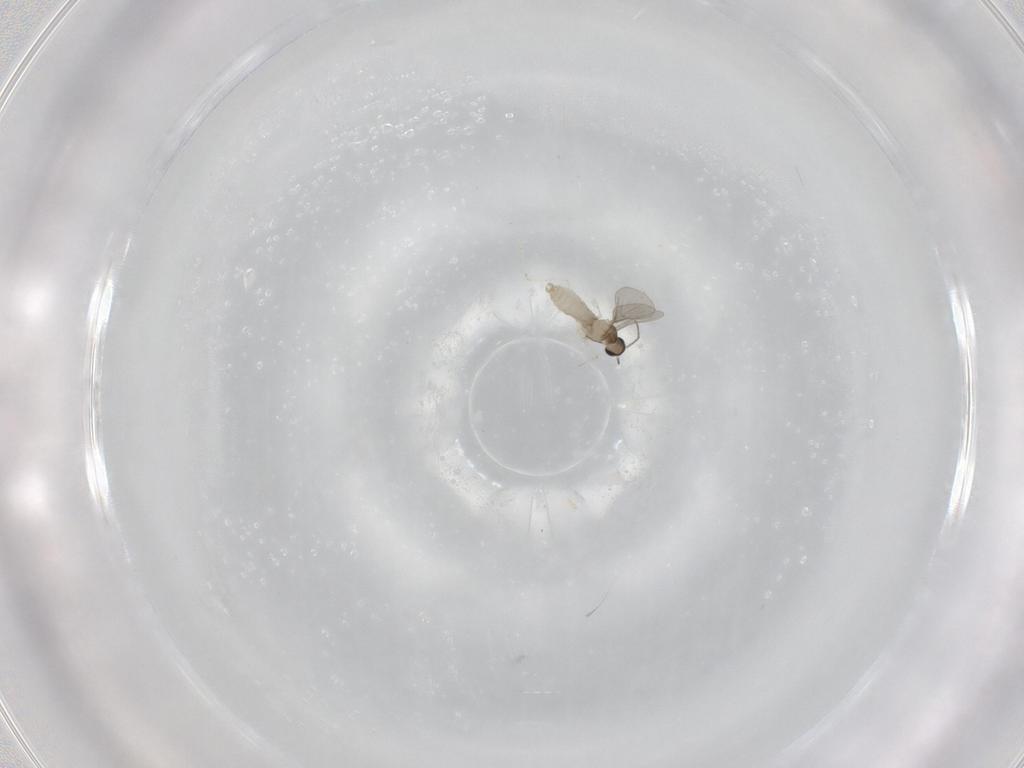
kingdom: Animalia
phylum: Arthropoda
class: Insecta
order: Diptera
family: Cecidomyiidae
